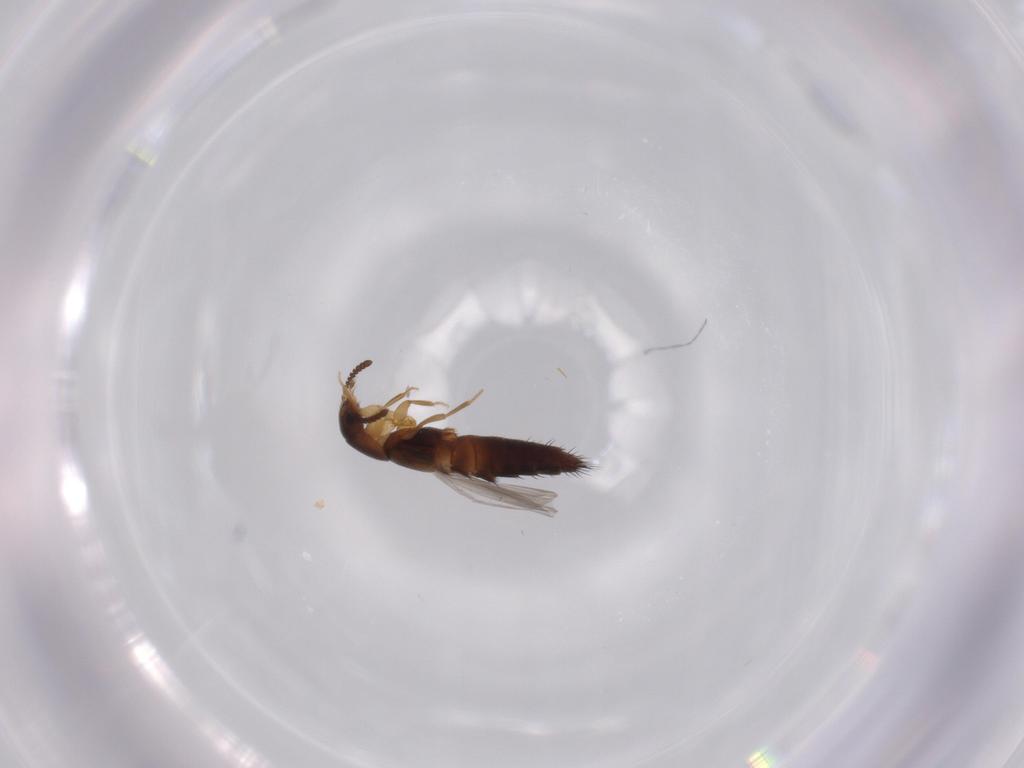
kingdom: Animalia
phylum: Arthropoda
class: Insecta
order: Coleoptera
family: Staphylinidae
